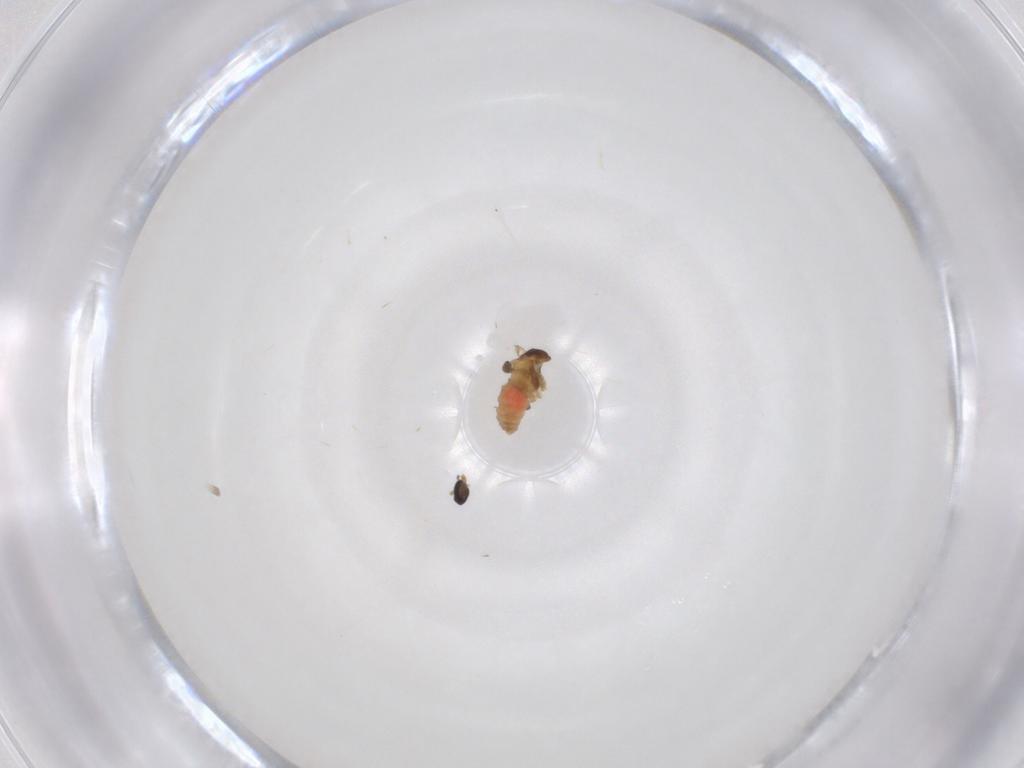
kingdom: Animalia
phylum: Arthropoda
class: Insecta
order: Diptera
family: Cecidomyiidae
